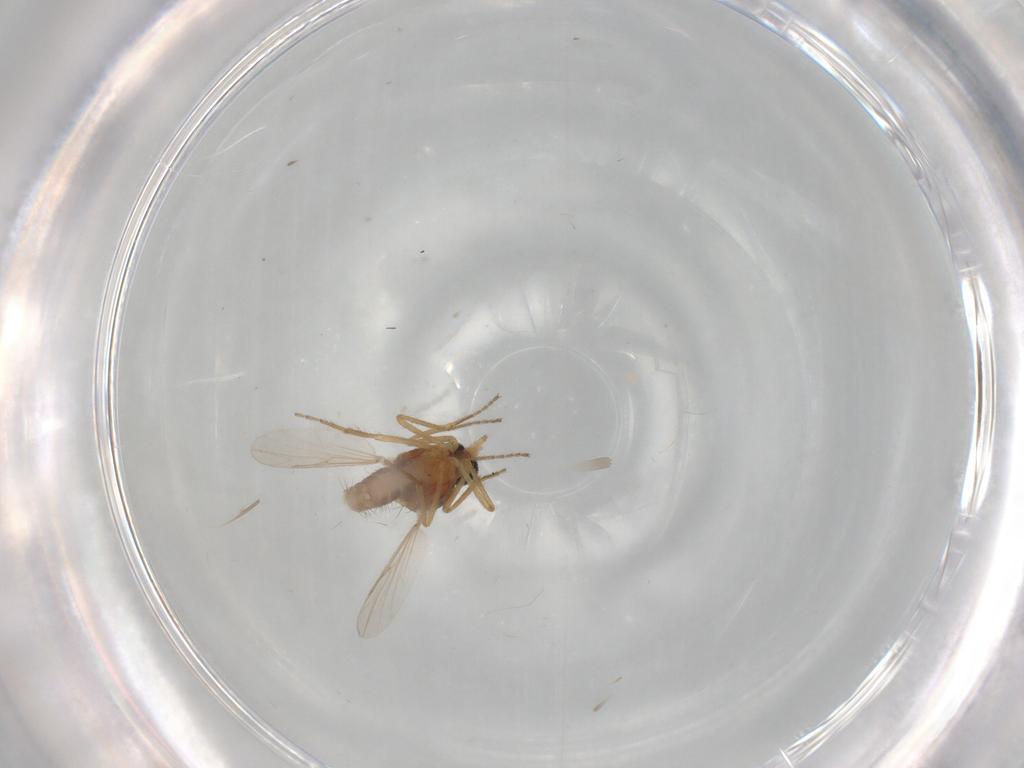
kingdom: Animalia
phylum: Arthropoda
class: Insecta
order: Diptera
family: Ceratopogonidae
